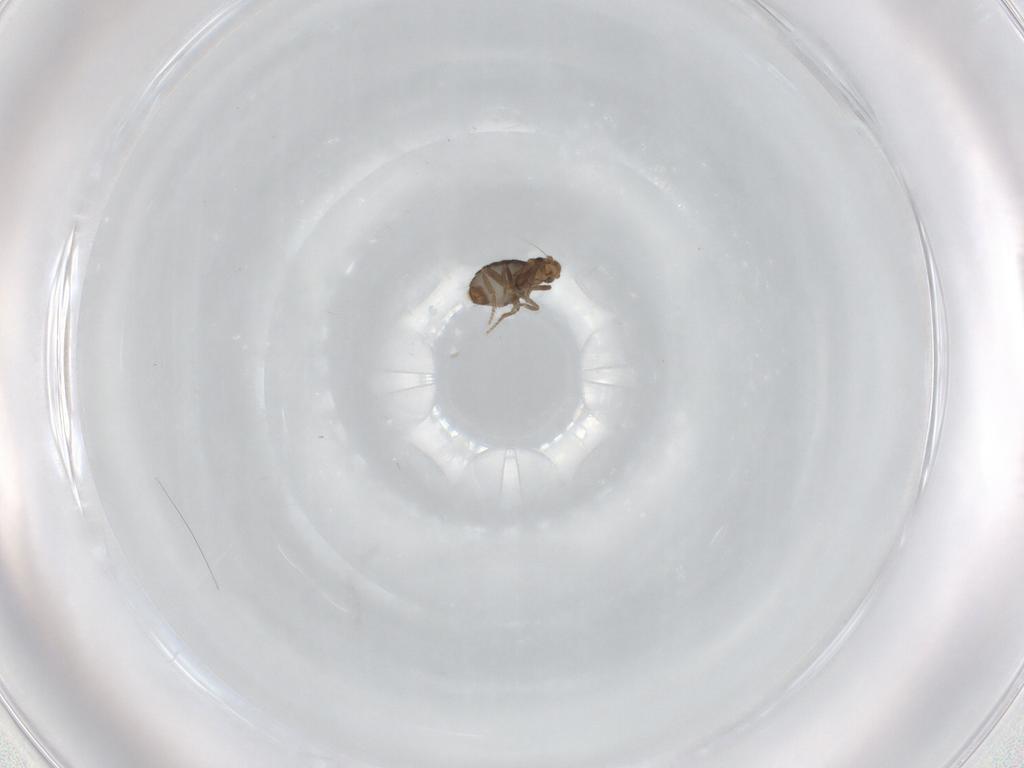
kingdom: Animalia
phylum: Arthropoda
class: Insecta
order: Diptera
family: Phoridae
